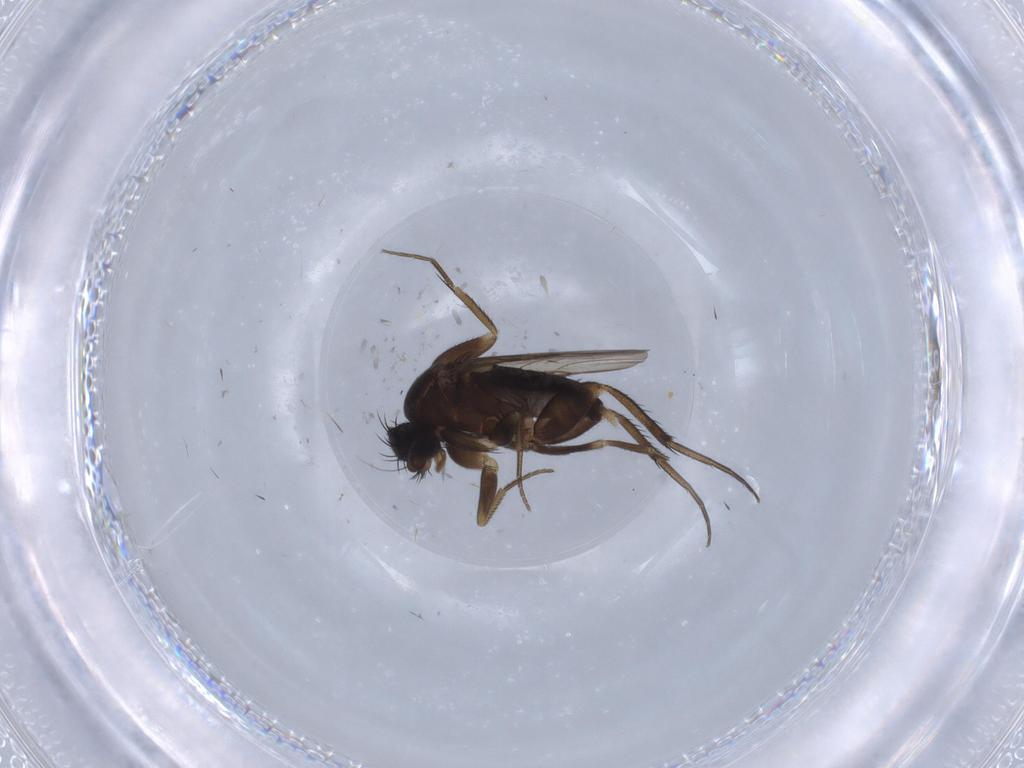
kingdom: Animalia
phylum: Arthropoda
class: Insecta
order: Diptera
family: Phoridae
